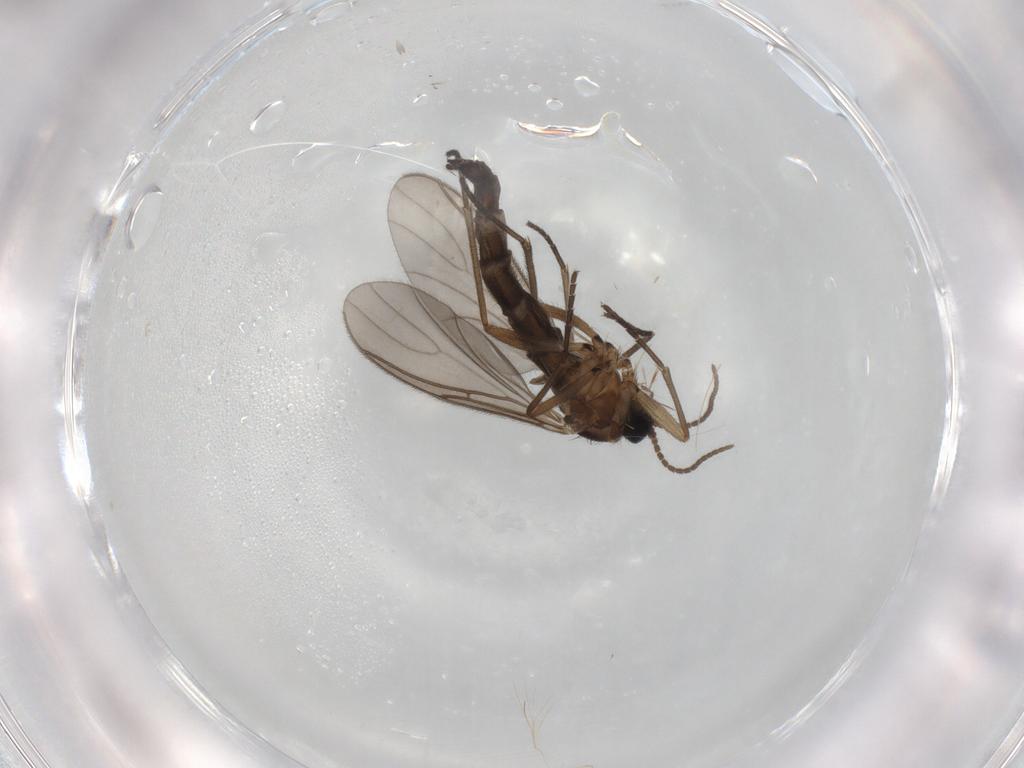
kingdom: Animalia
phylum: Arthropoda
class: Insecta
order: Diptera
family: Sciaridae
